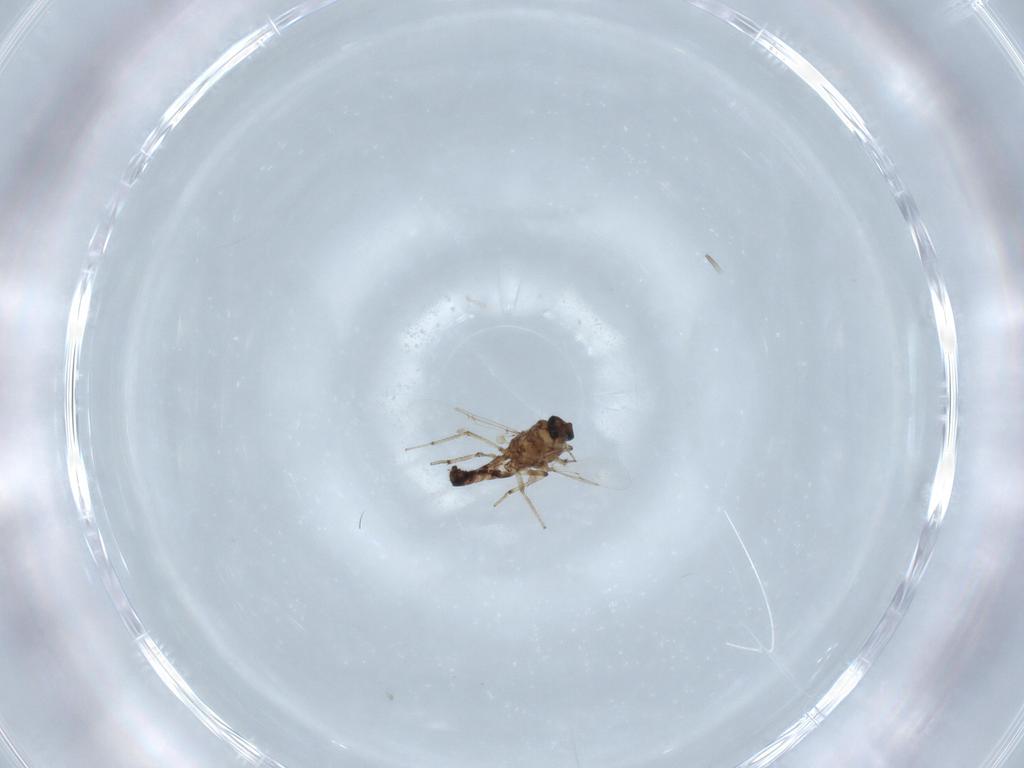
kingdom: Animalia
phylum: Arthropoda
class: Insecta
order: Diptera
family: Ceratopogonidae
